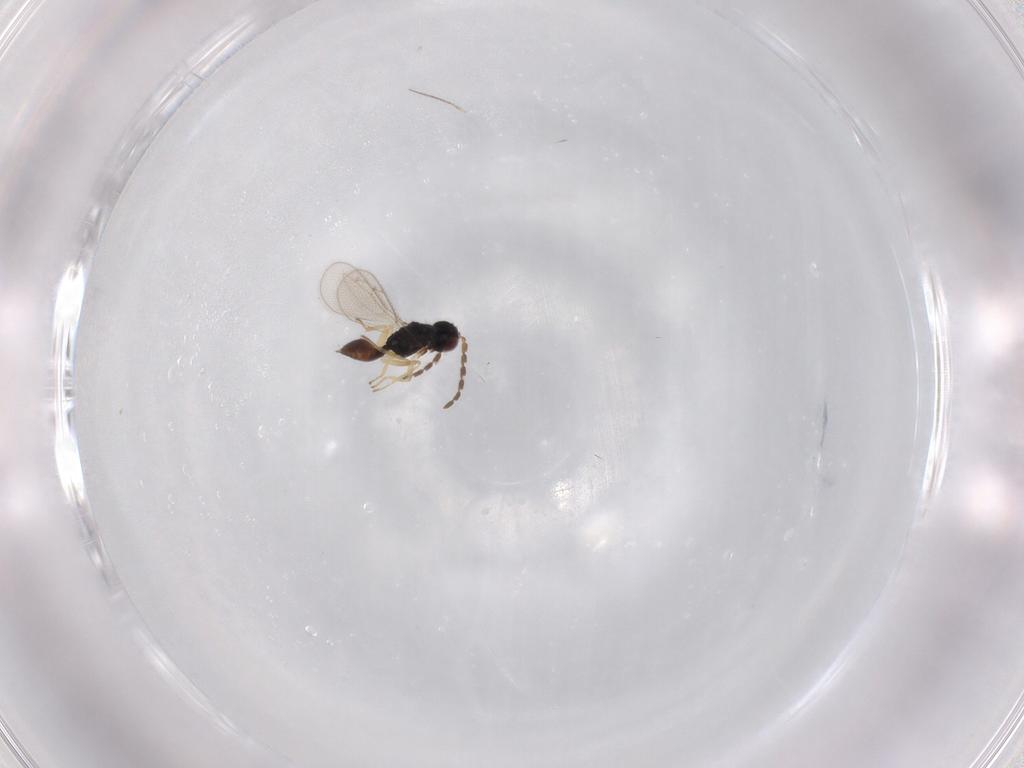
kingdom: Animalia
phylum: Arthropoda
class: Insecta
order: Hymenoptera
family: Eulophidae
